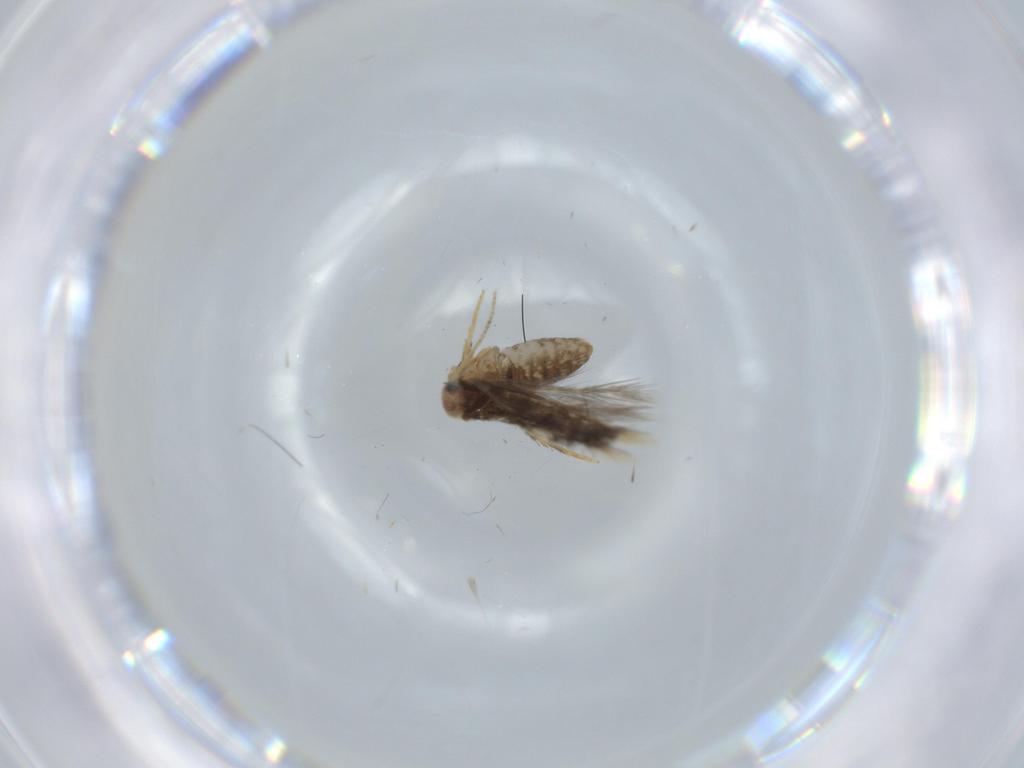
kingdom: Animalia
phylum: Arthropoda
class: Insecta
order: Lepidoptera
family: Nepticulidae
